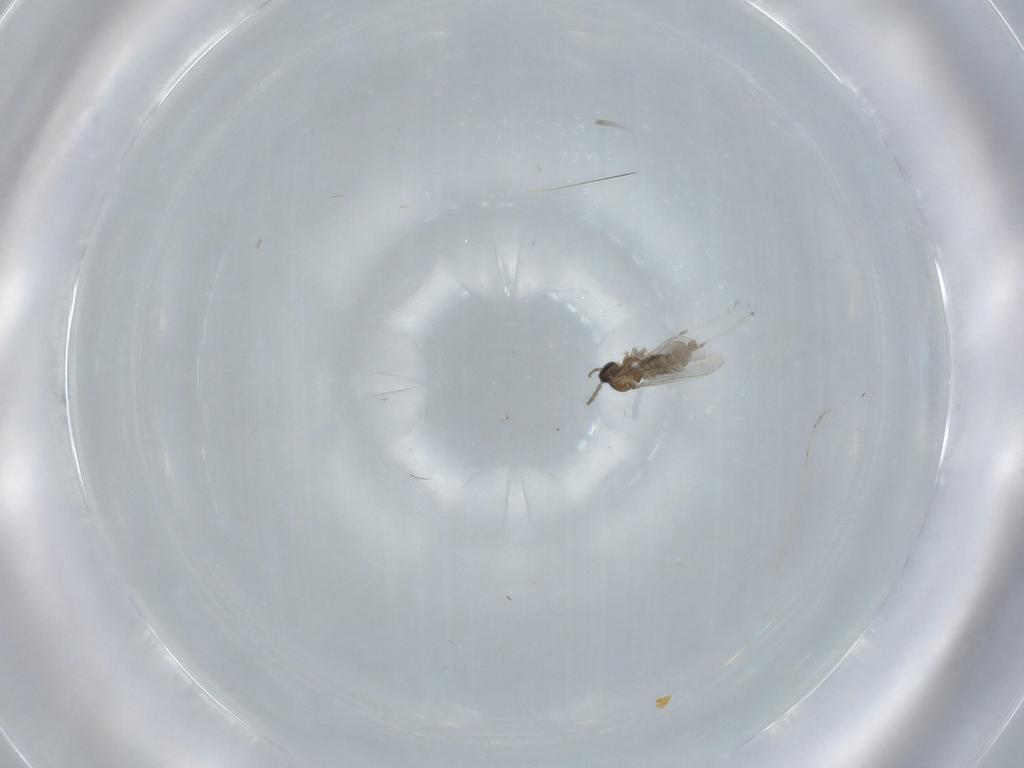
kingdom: Animalia
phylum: Arthropoda
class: Insecta
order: Diptera
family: Cecidomyiidae
